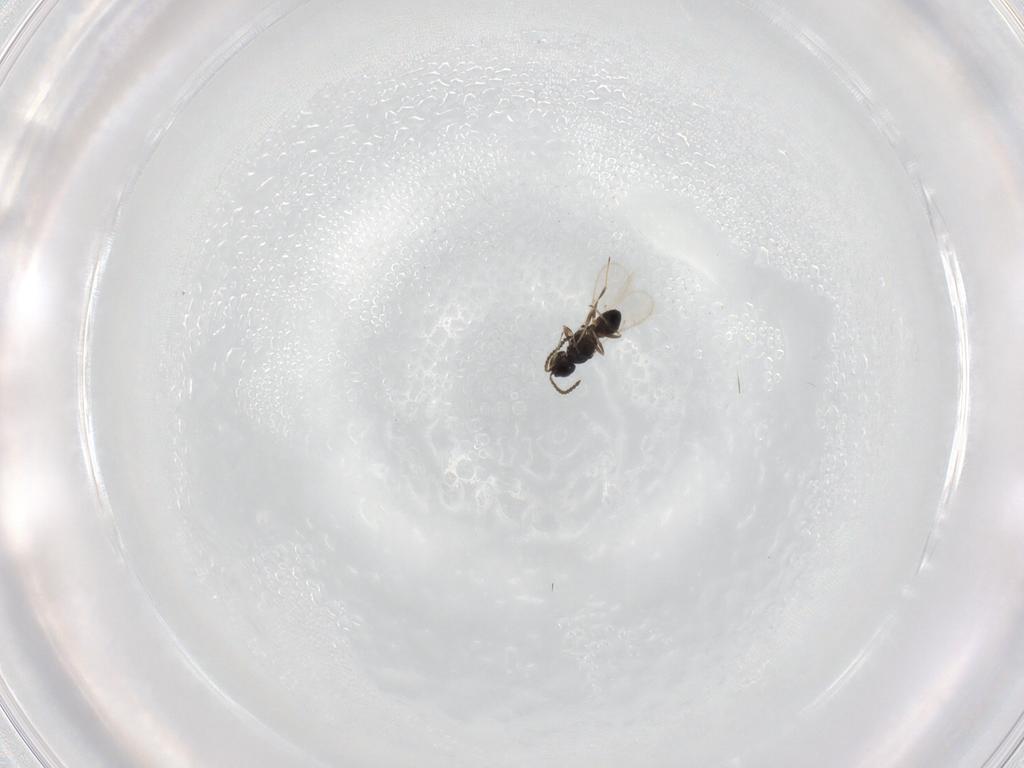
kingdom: Animalia
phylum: Arthropoda
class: Insecta
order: Hymenoptera
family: Scelionidae
